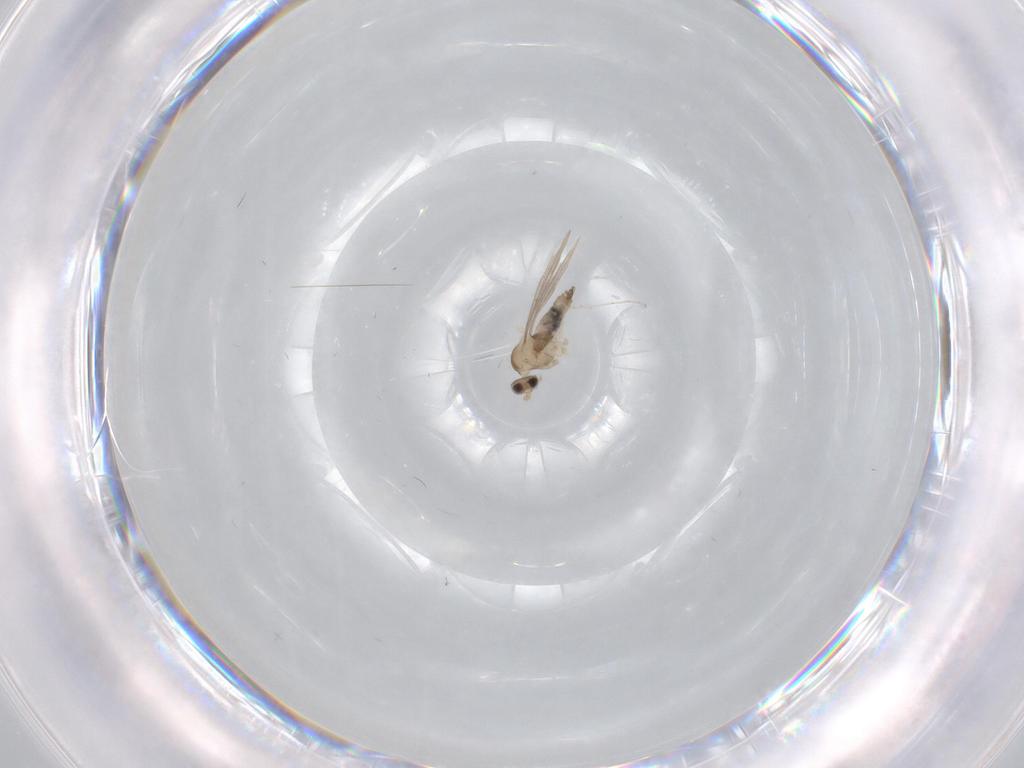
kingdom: Animalia
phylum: Arthropoda
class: Insecta
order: Diptera
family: Cecidomyiidae
